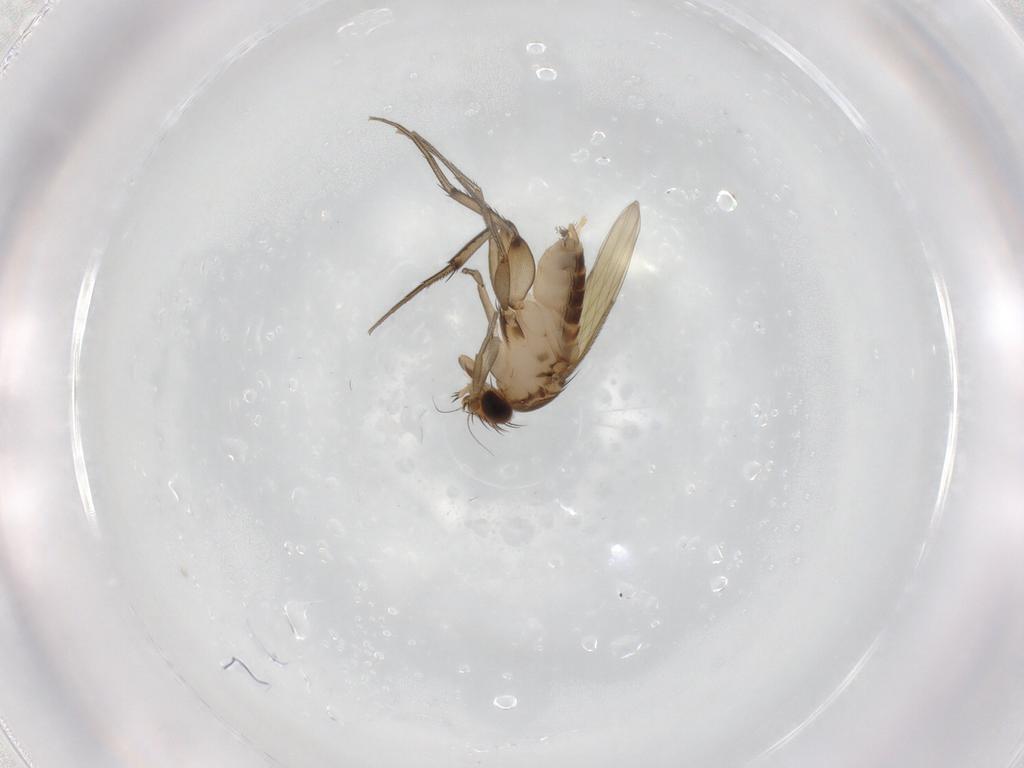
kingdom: Animalia
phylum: Arthropoda
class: Insecta
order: Diptera
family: Phoridae
